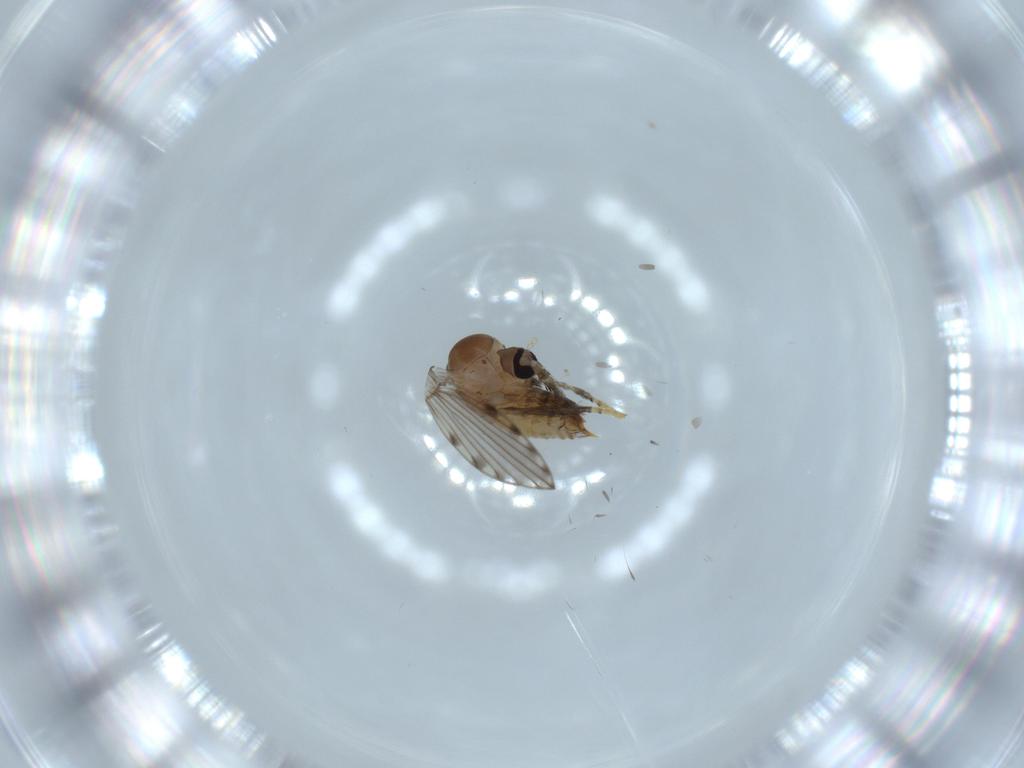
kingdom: Animalia
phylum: Arthropoda
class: Insecta
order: Diptera
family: Psychodidae
